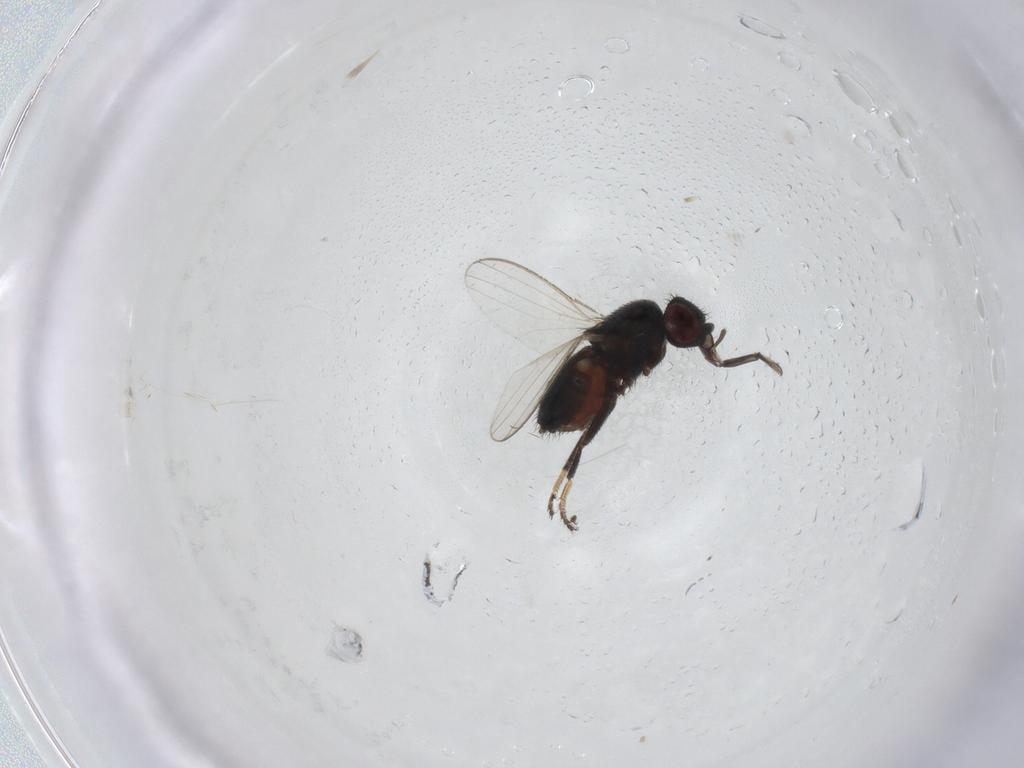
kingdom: Animalia
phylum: Arthropoda
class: Insecta
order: Diptera
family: Milichiidae
